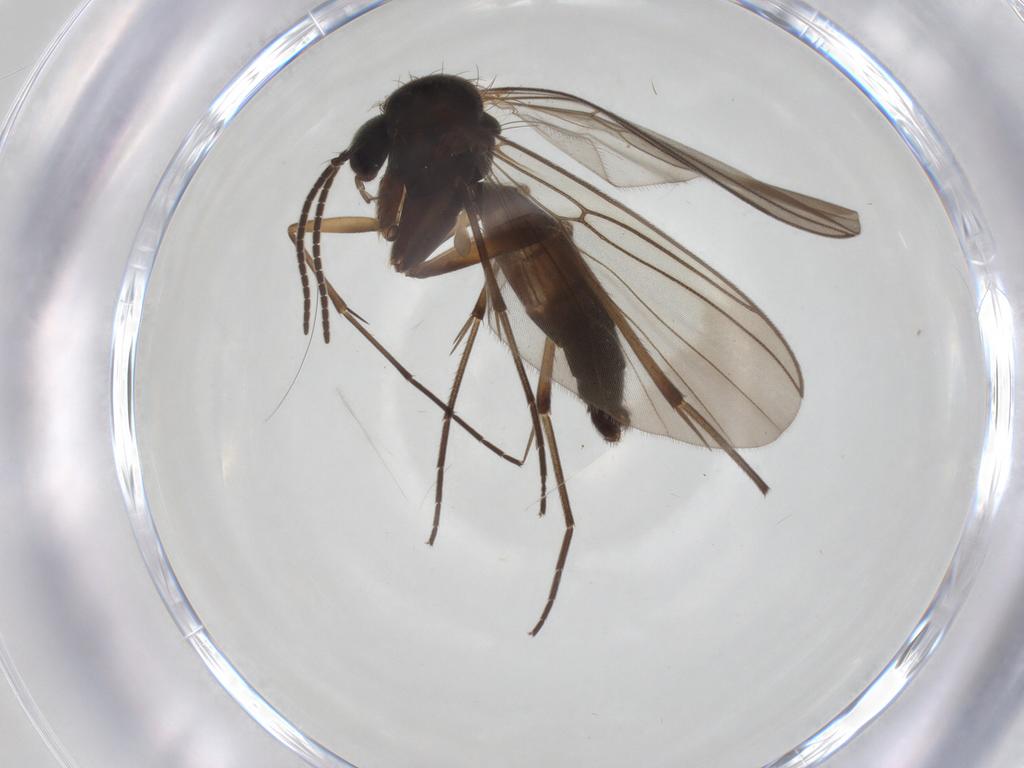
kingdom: Animalia
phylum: Arthropoda
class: Insecta
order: Diptera
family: Mycetophilidae
